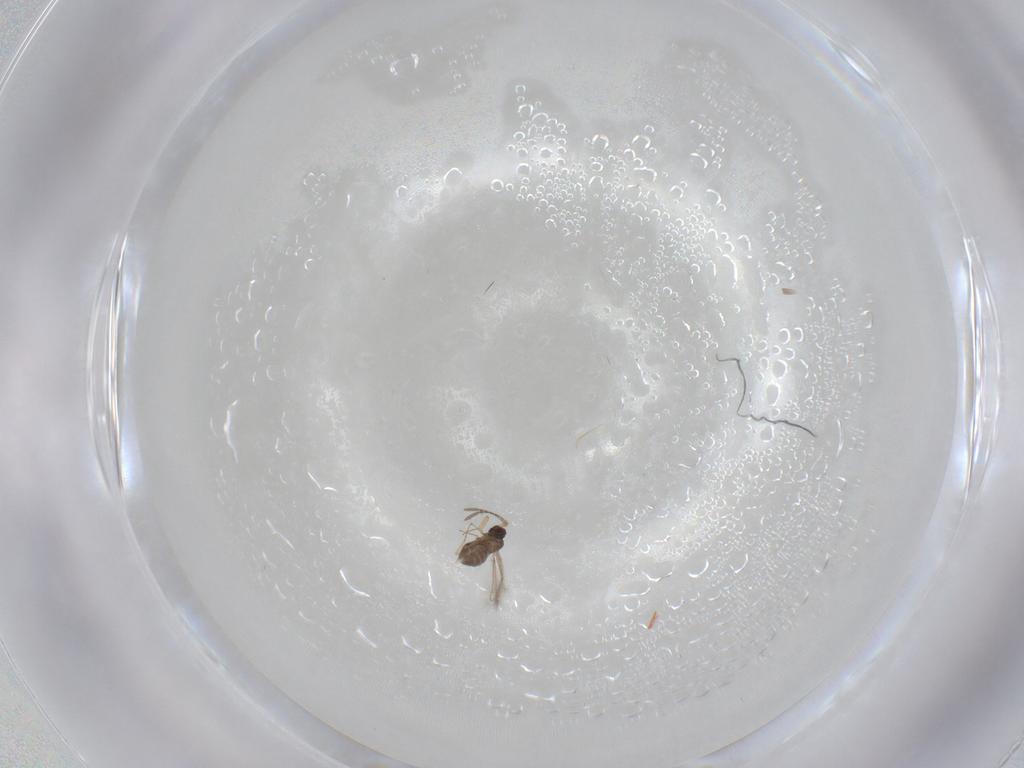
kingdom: Animalia
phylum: Arthropoda
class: Insecta
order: Hymenoptera
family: Mymaridae
